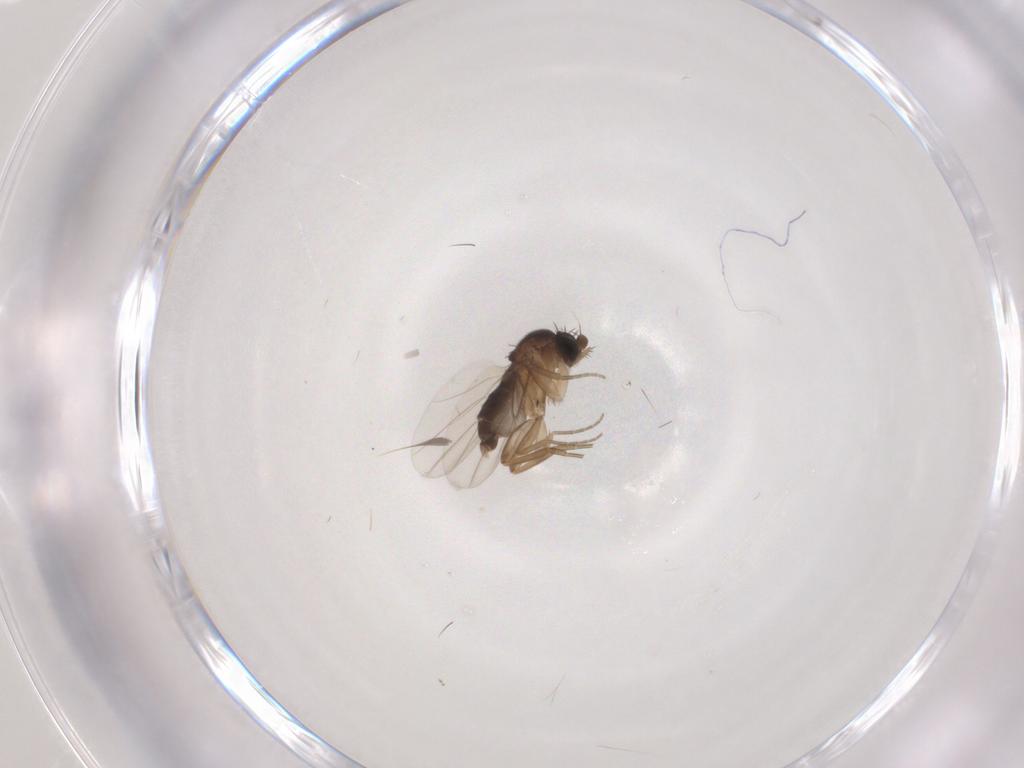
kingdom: Animalia
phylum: Arthropoda
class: Insecta
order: Diptera
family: Phoridae
